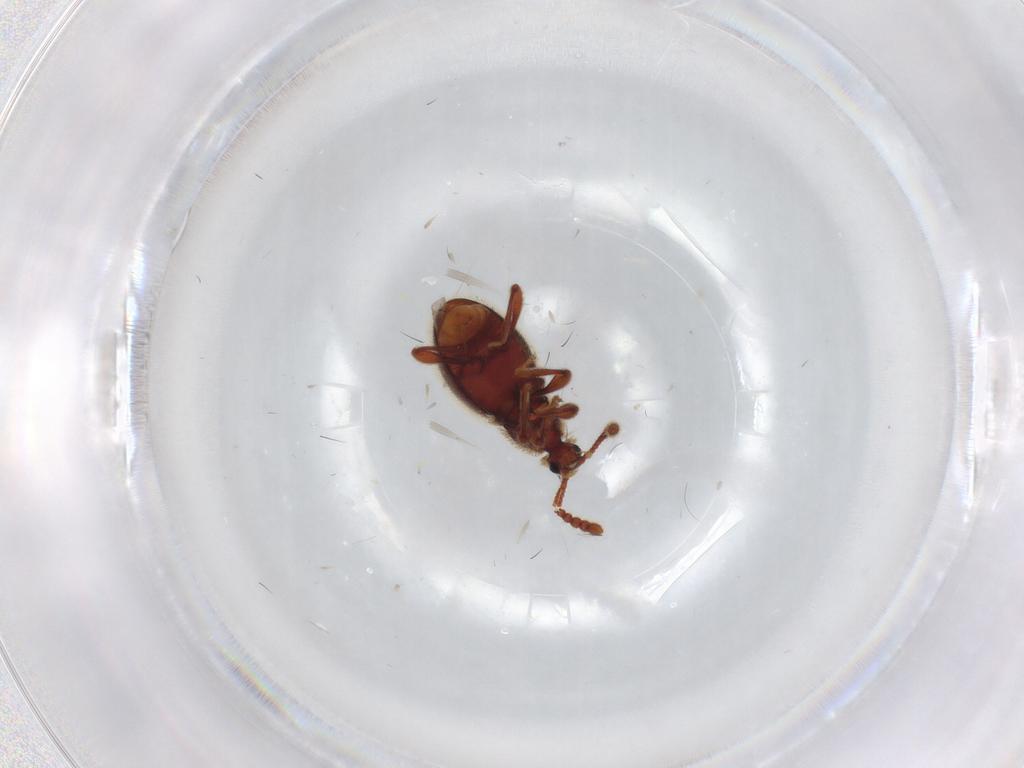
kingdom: Animalia
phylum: Arthropoda
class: Insecta
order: Coleoptera
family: Staphylinidae
